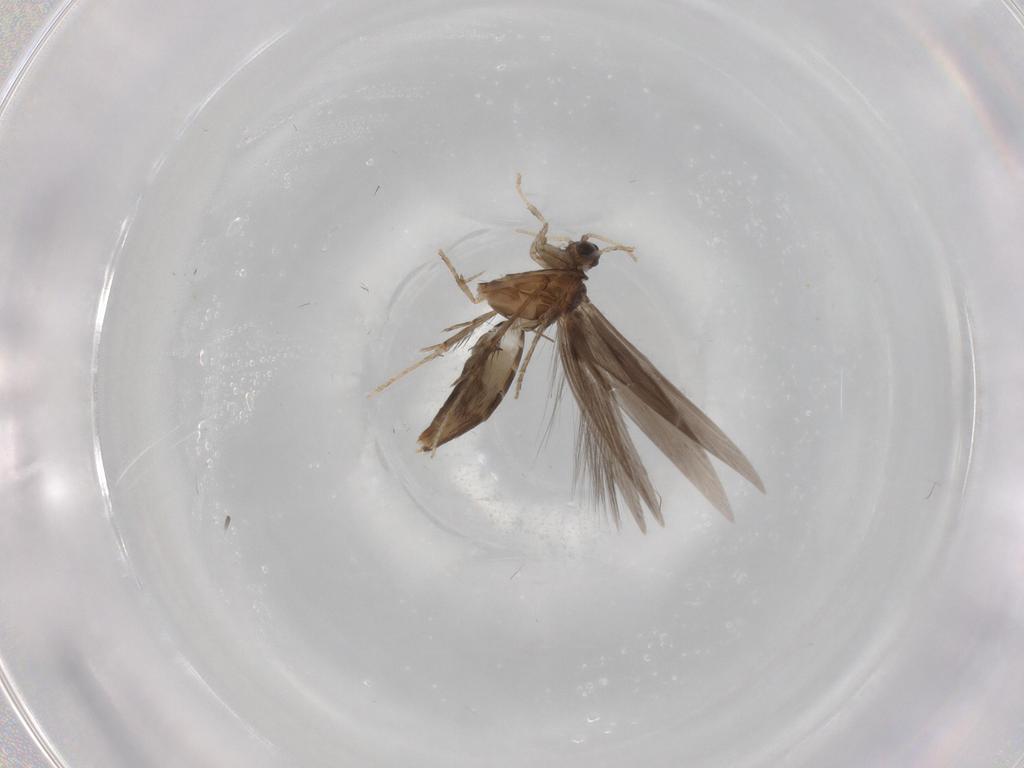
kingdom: Animalia
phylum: Arthropoda
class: Insecta
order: Trichoptera
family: Hydroptilidae
